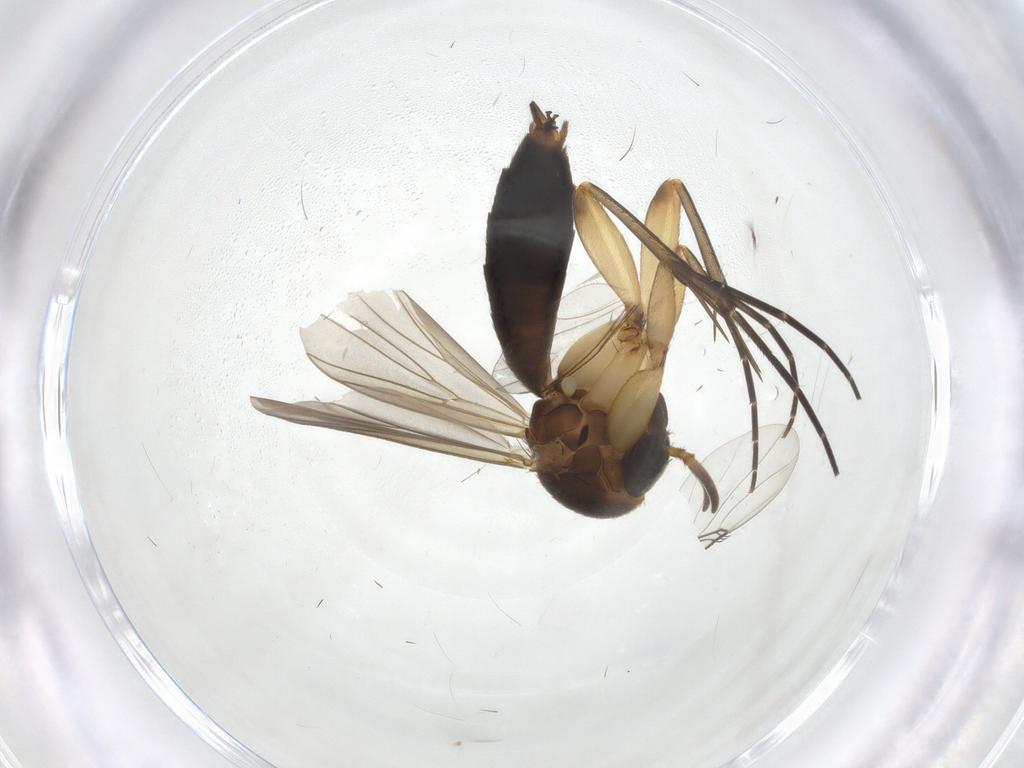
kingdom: Animalia
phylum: Arthropoda
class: Insecta
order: Diptera
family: Mycetophilidae
